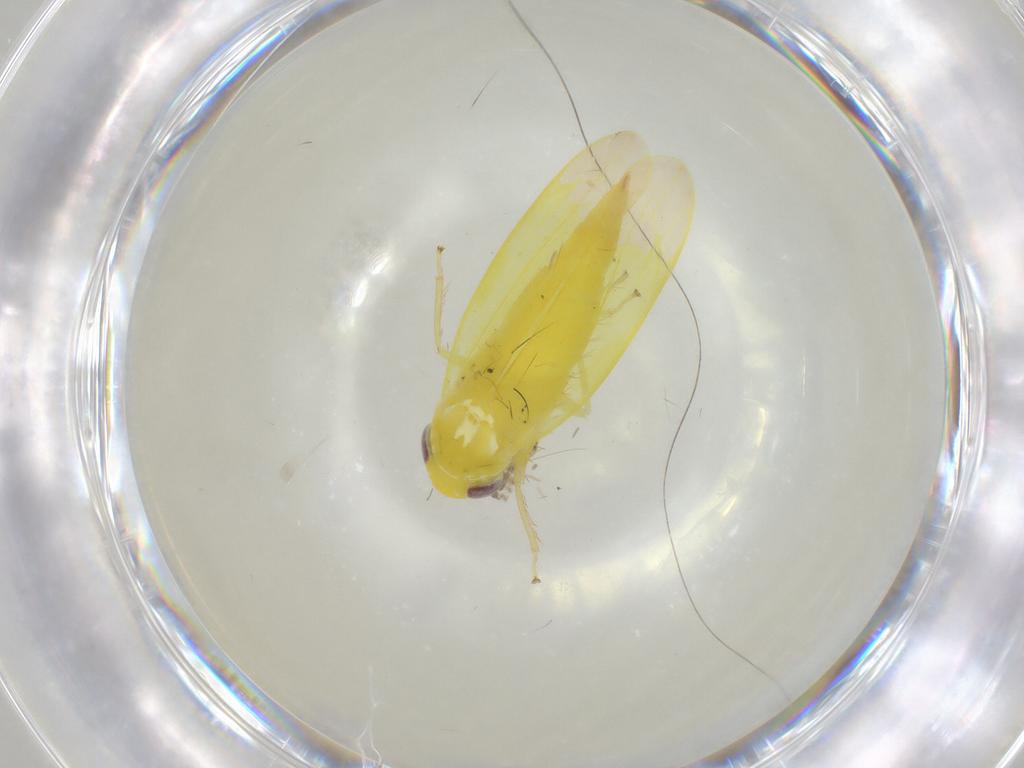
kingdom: Animalia
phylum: Arthropoda
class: Insecta
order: Hemiptera
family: Cicadellidae
